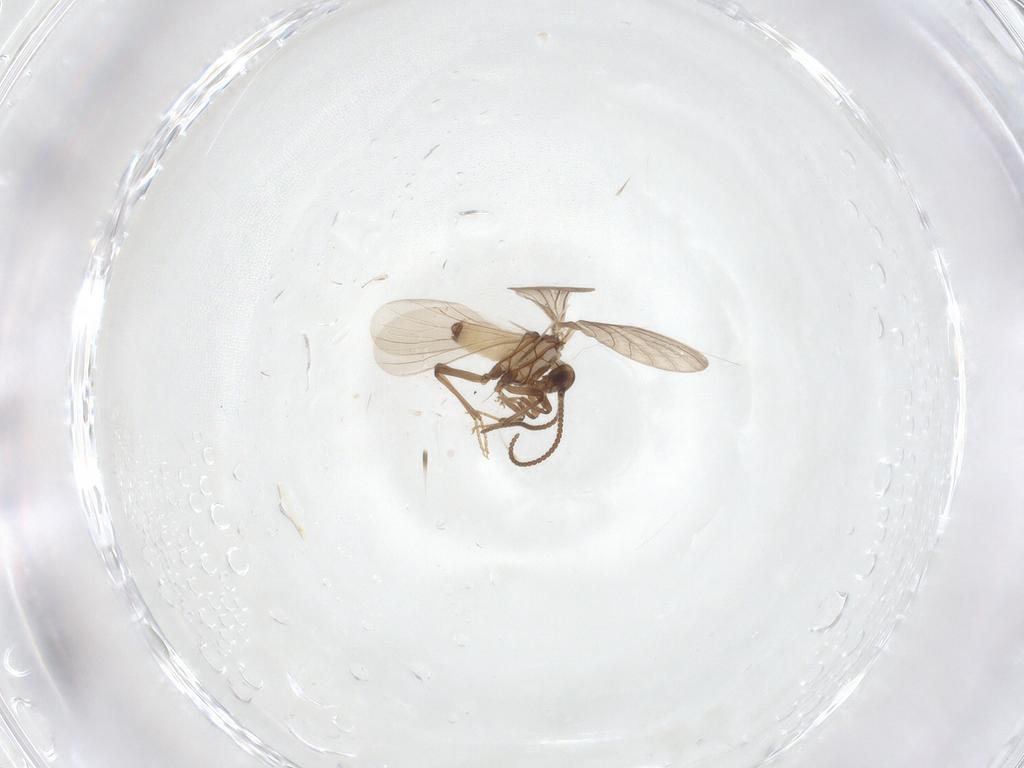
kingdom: Animalia
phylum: Arthropoda
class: Insecta
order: Neuroptera
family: Coniopterygidae
